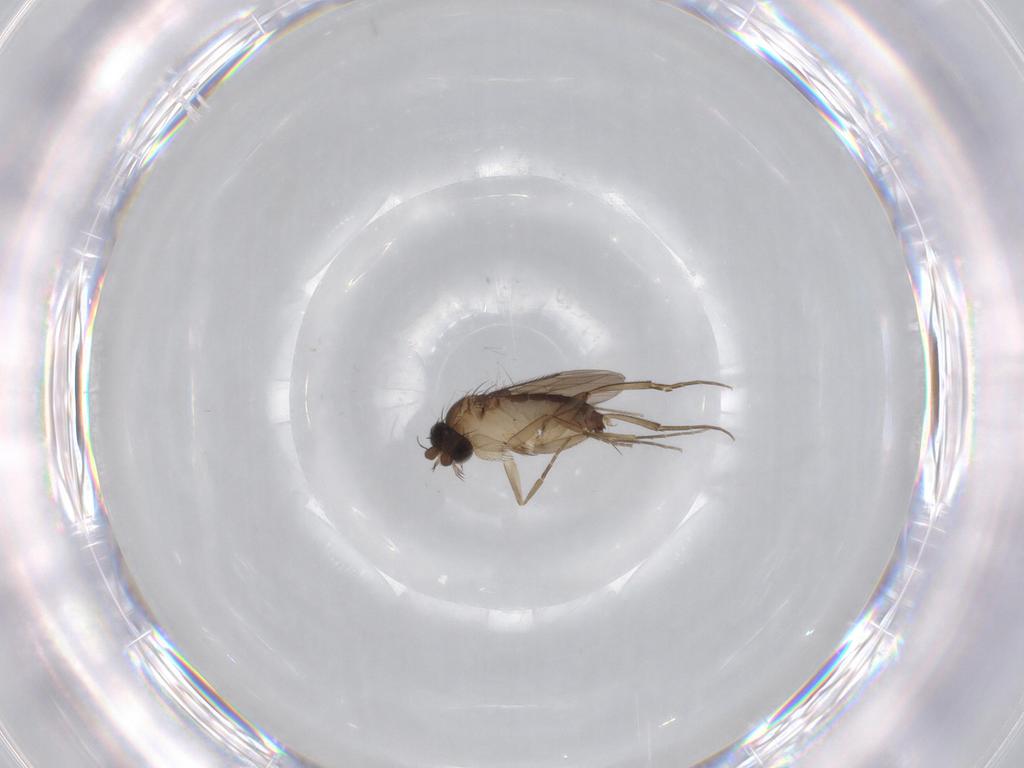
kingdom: Animalia
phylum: Arthropoda
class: Insecta
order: Diptera
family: Phoridae
